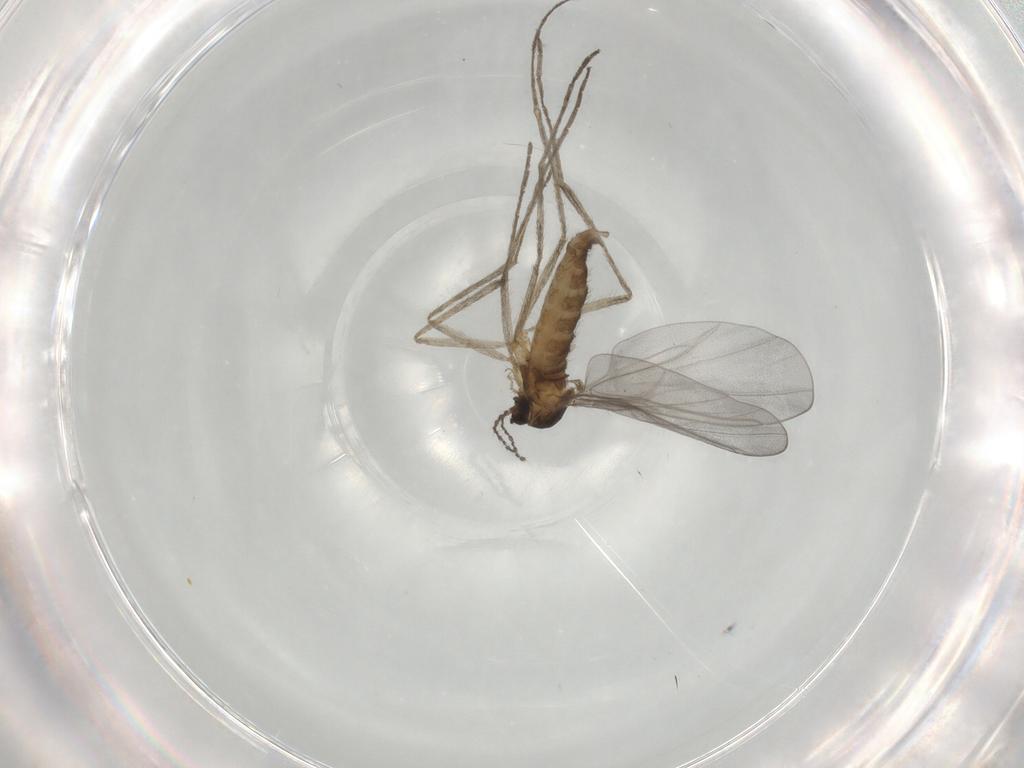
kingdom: Animalia
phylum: Arthropoda
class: Insecta
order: Diptera
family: Cecidomyiidae
